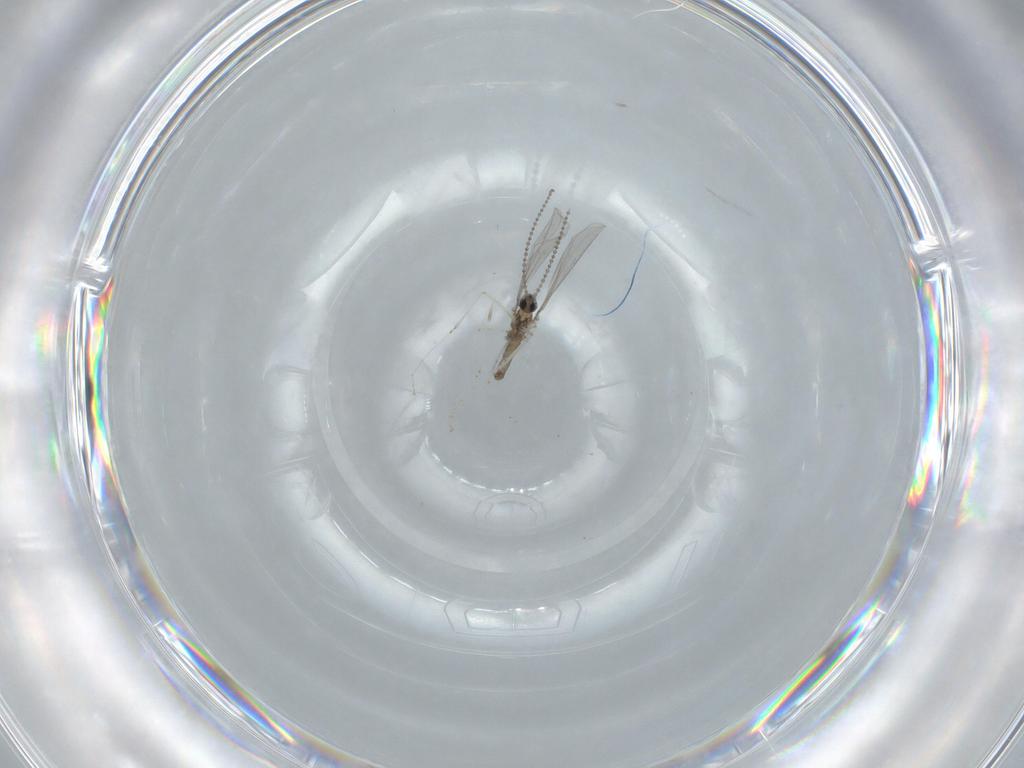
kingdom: Animalia
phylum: Arthropoda
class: Insecta
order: Diptera
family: Cecidomyiidae
